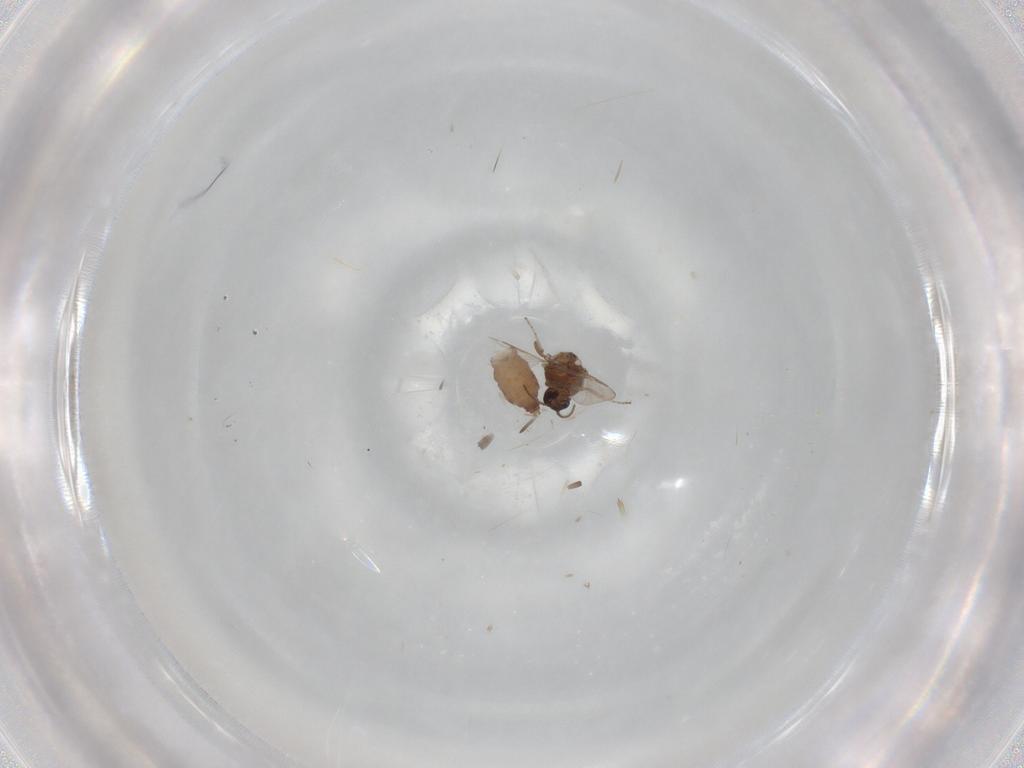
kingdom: Animalia
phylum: Arthropoda
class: Insecta
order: Diptera
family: Ceratopogonidae
